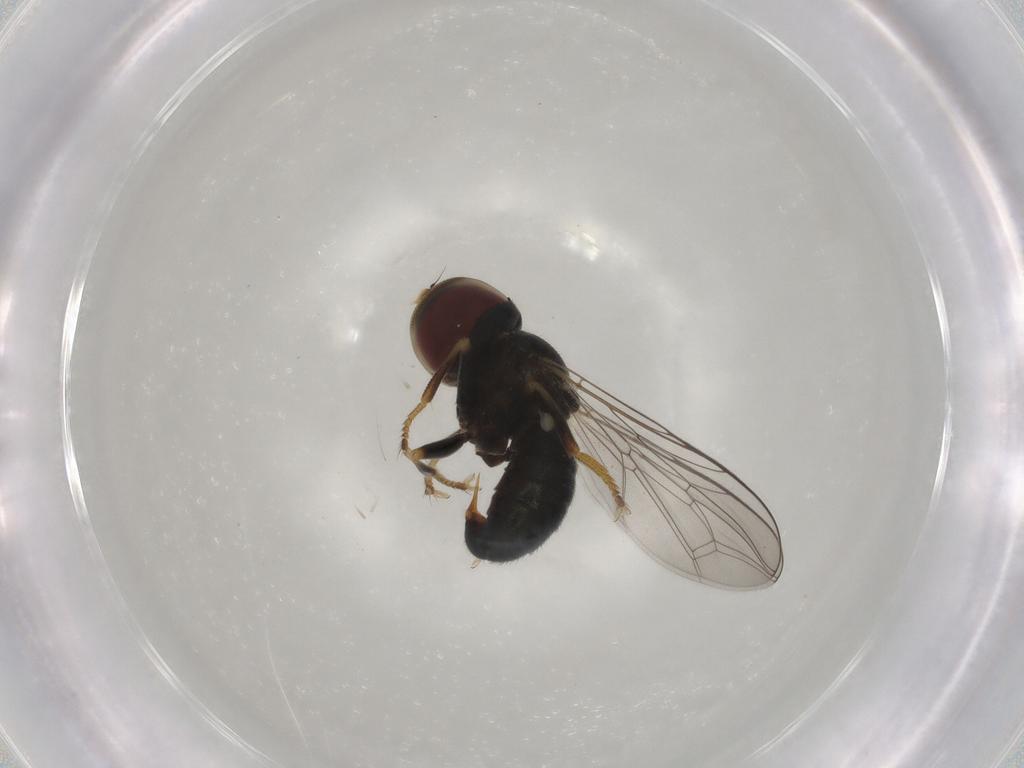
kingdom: Animalia
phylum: Arthropoda
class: Insecta
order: Diptera
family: Pipunculidae
